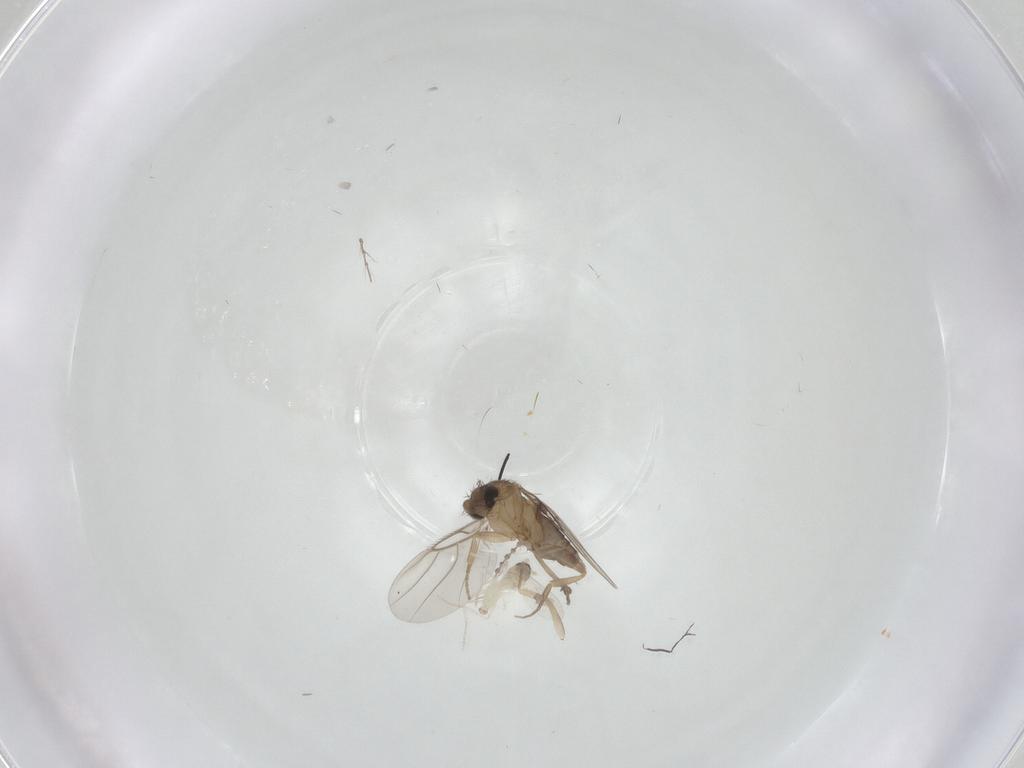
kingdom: Animalia
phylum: Arthropoda
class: Insecta
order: Diptera
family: Cecidomyiidae
